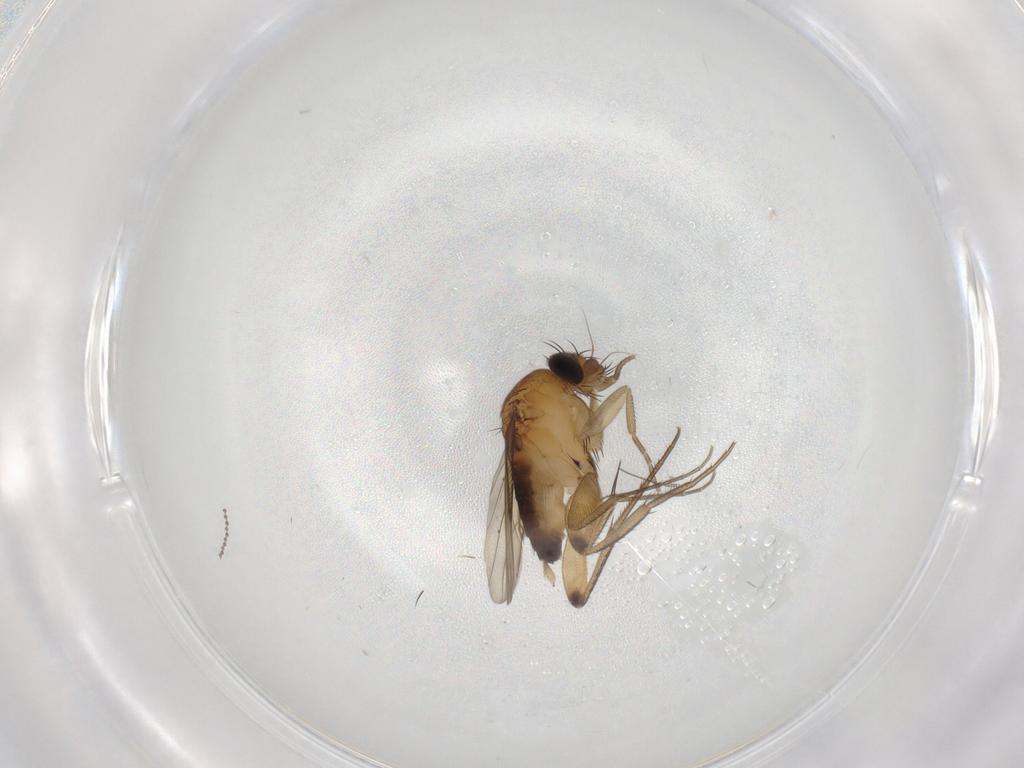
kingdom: Animalia
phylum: Arthropoda
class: Insecta
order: Diptera
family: Phoridae
